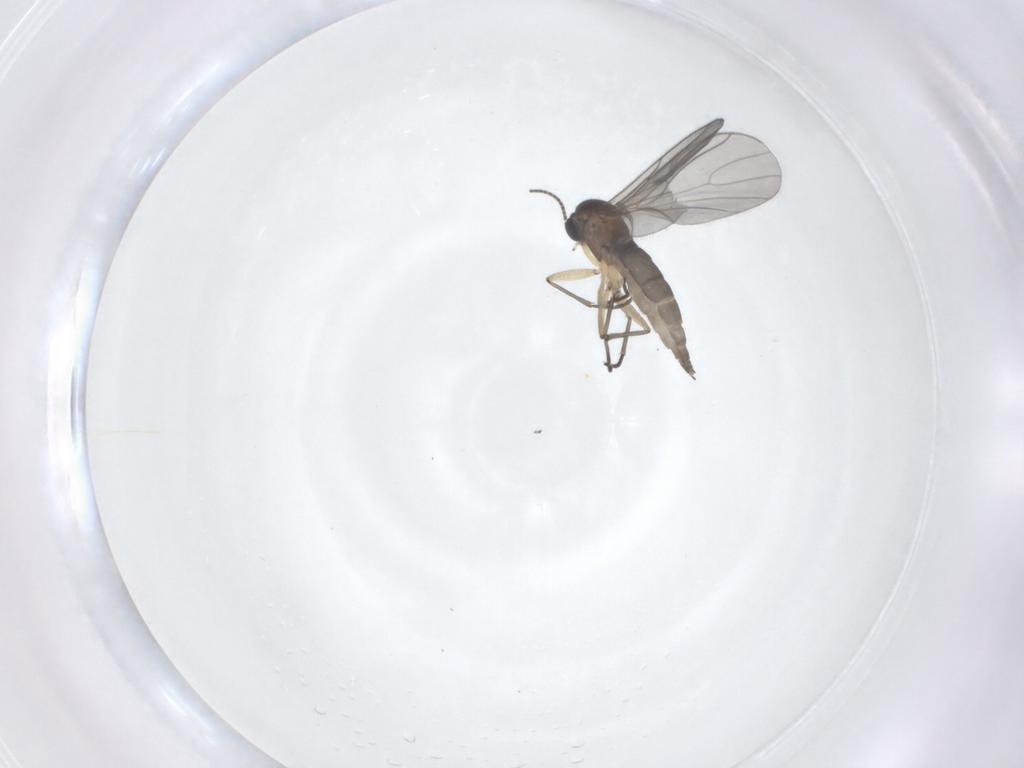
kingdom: Animalia
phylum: Arthropoda
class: Insecta
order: Diptera
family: Sciaridae
